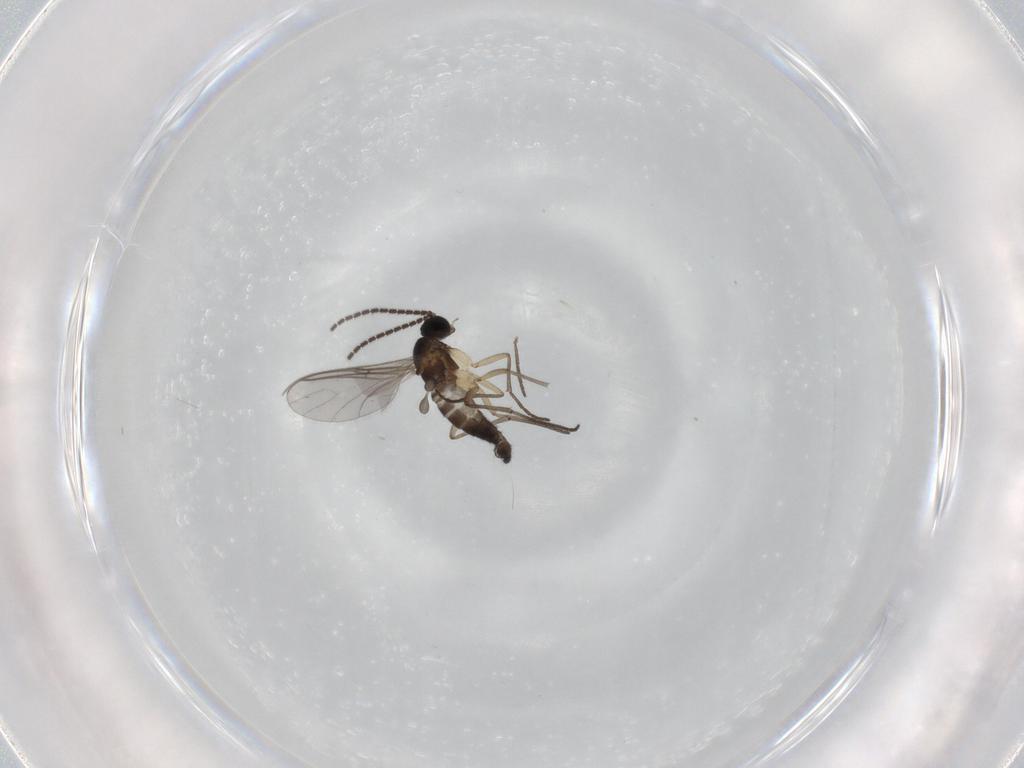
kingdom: Animalia
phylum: Arthropoda
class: Insecta
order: Diptera
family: Sciaridae
